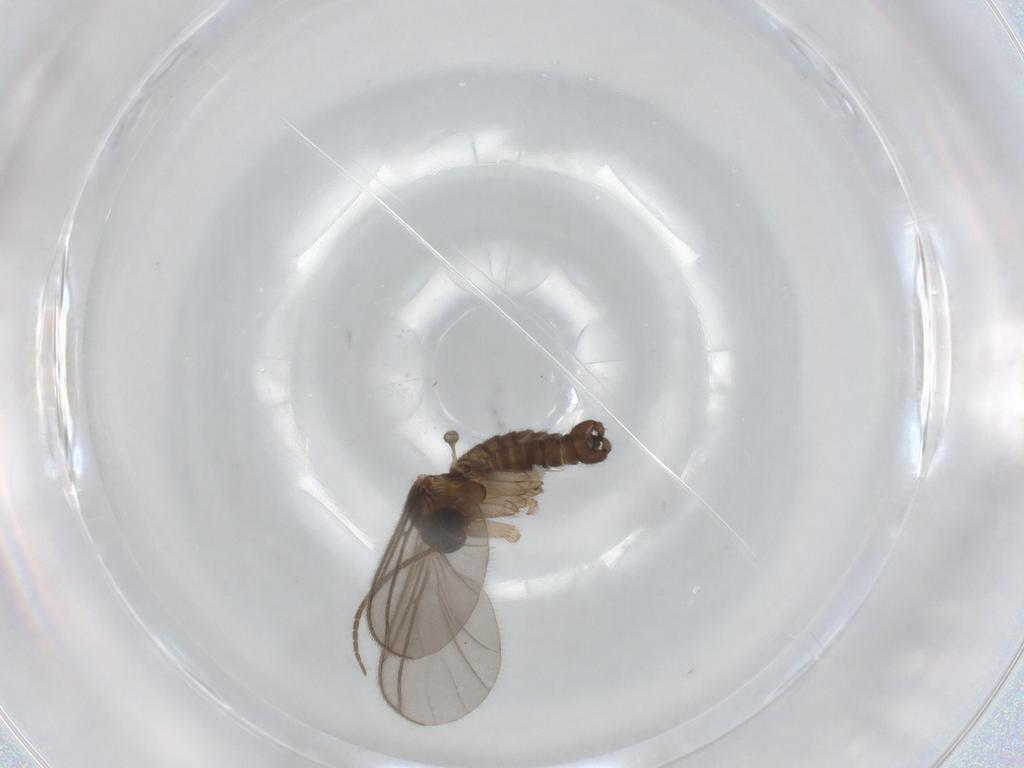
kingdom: Animalia
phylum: Arthropoda
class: Insecta
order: Diptera
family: Sciaridae
